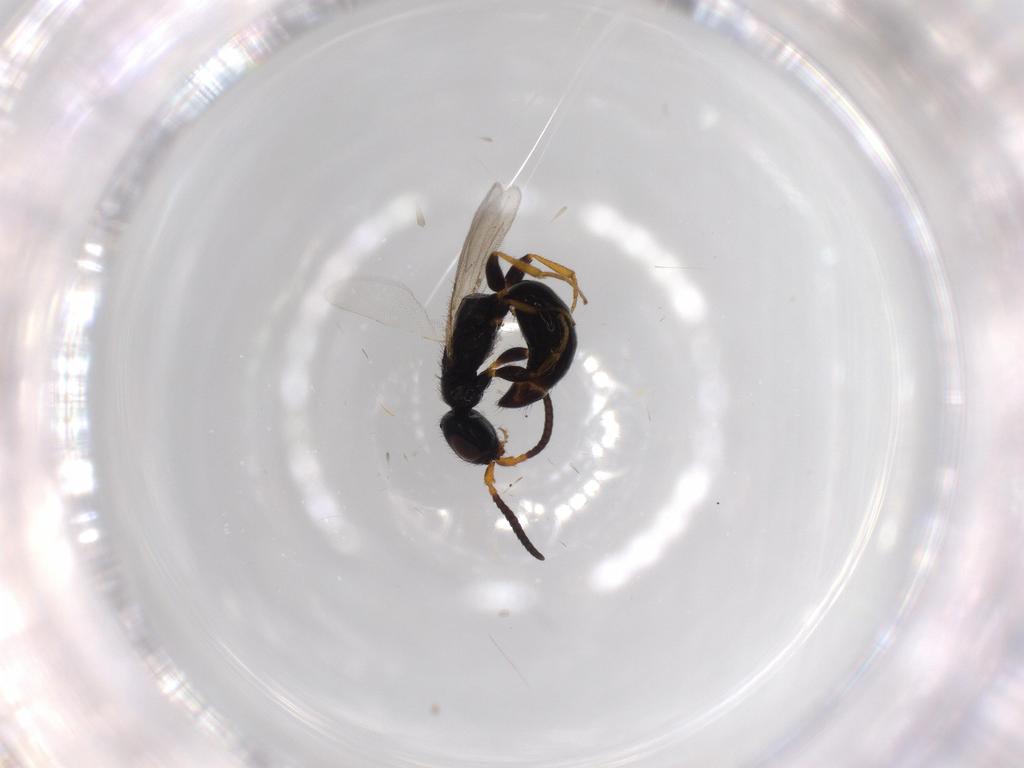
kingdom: Animalia
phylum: Arthropoda
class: Insecta
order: Hymenoptera
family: Bethylidae
